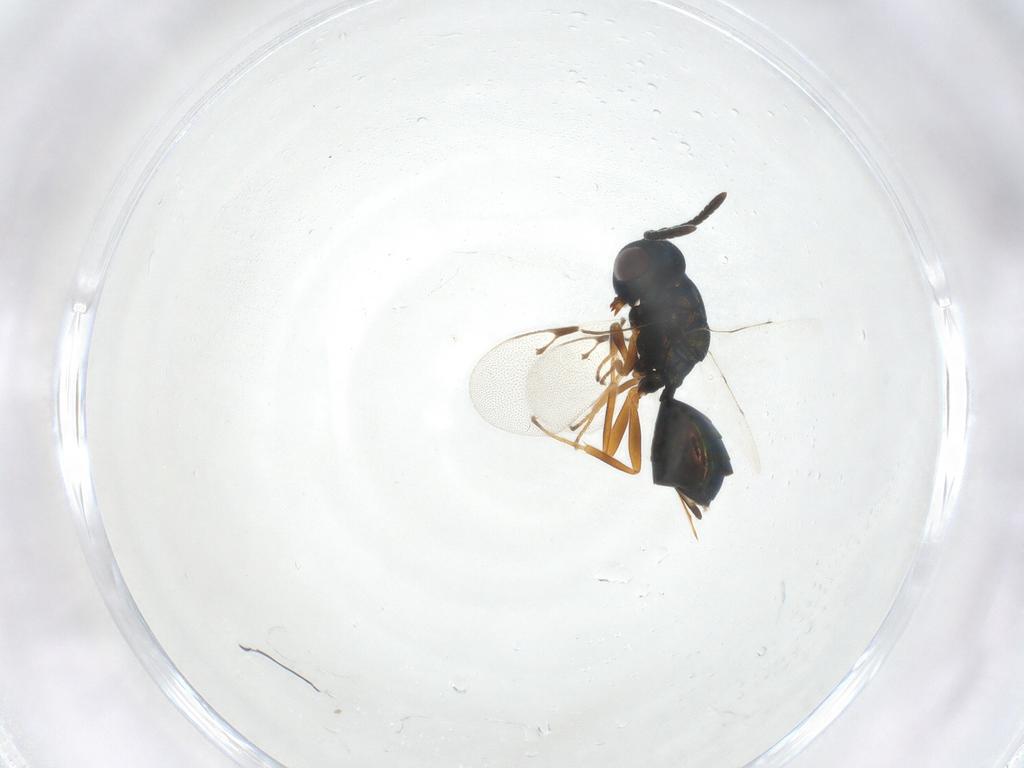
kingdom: Animalia
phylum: Arthropoda
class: Insecta
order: Hymenoptera
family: Pteromalidae
